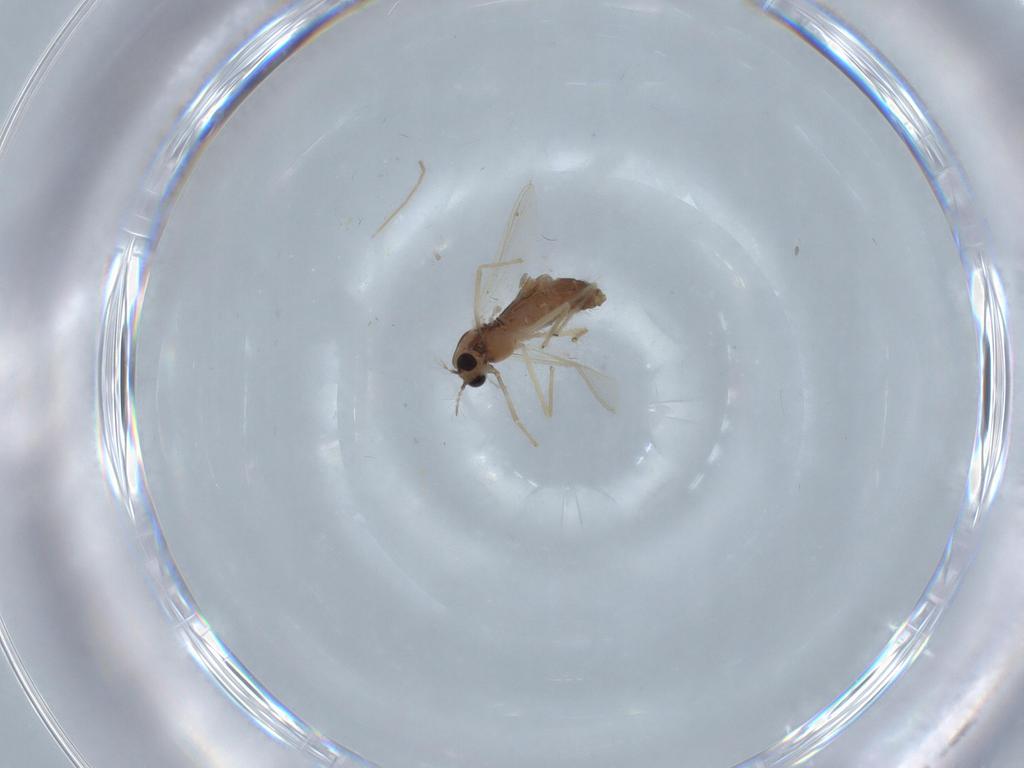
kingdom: Animalia
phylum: Arthropoda
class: Insecta
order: Diptera
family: Chironomidae
